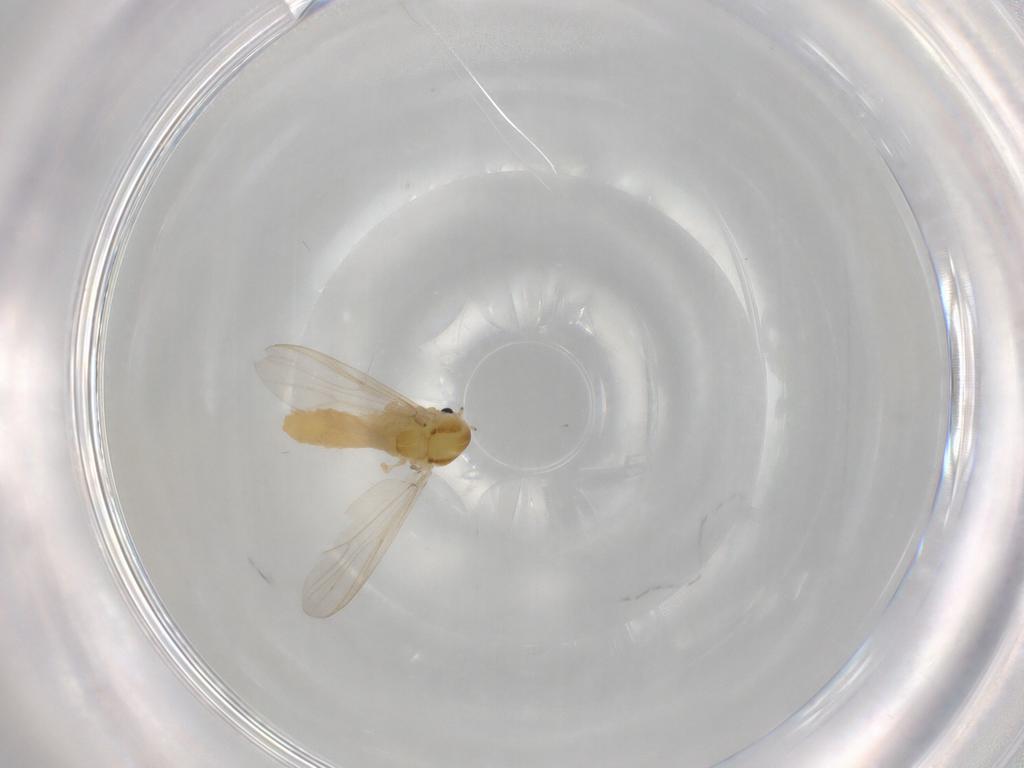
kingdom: Animalia
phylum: Arthropoda
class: Insecta
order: Diptera
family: Chironomidae
